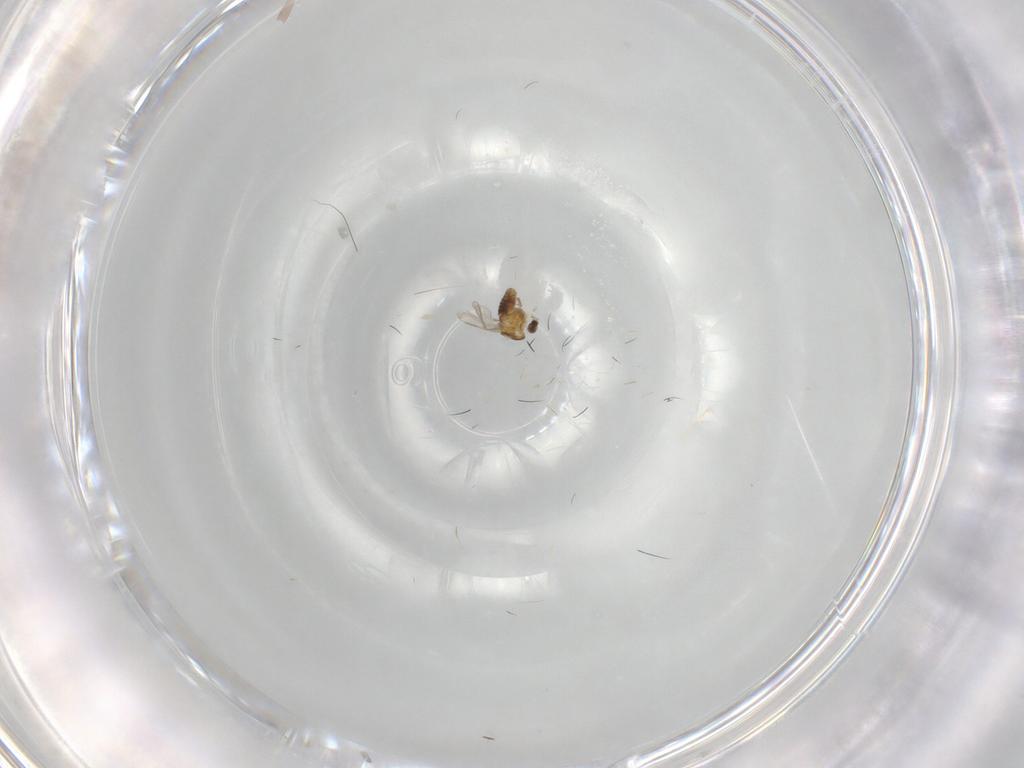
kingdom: Animalia
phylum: Arthropoda
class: Insecta
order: Diptera
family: Chironomidae
